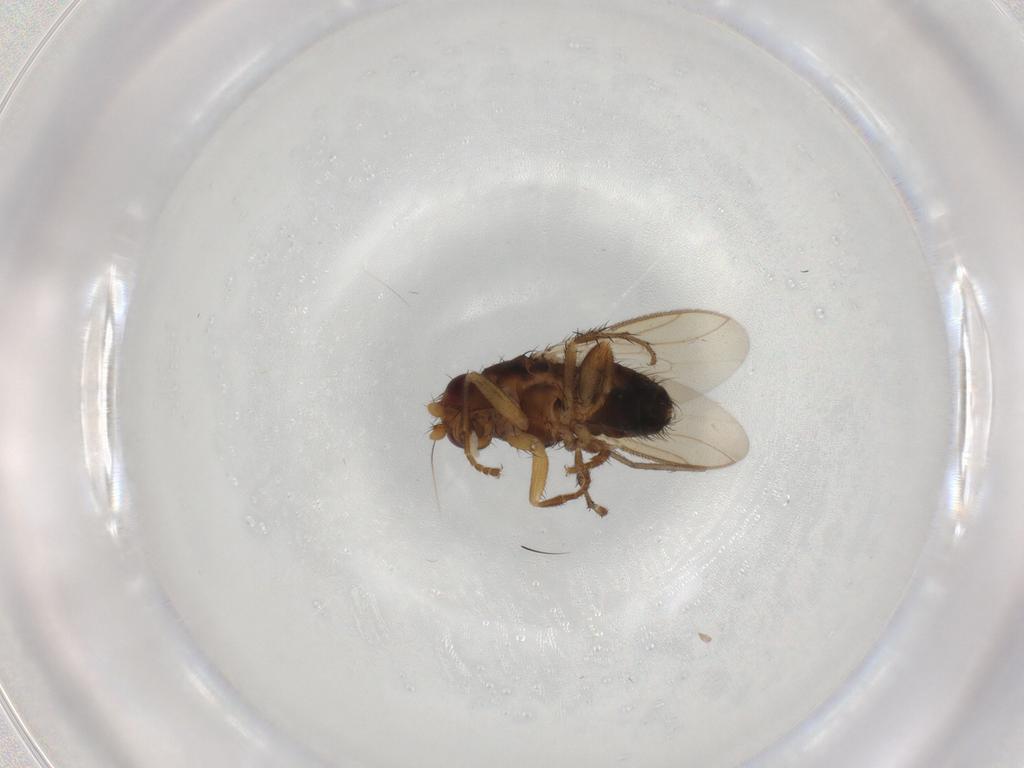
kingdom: Animalia
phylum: Arthropoda
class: Insecta
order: Diptera
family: Sphaeroceridae
